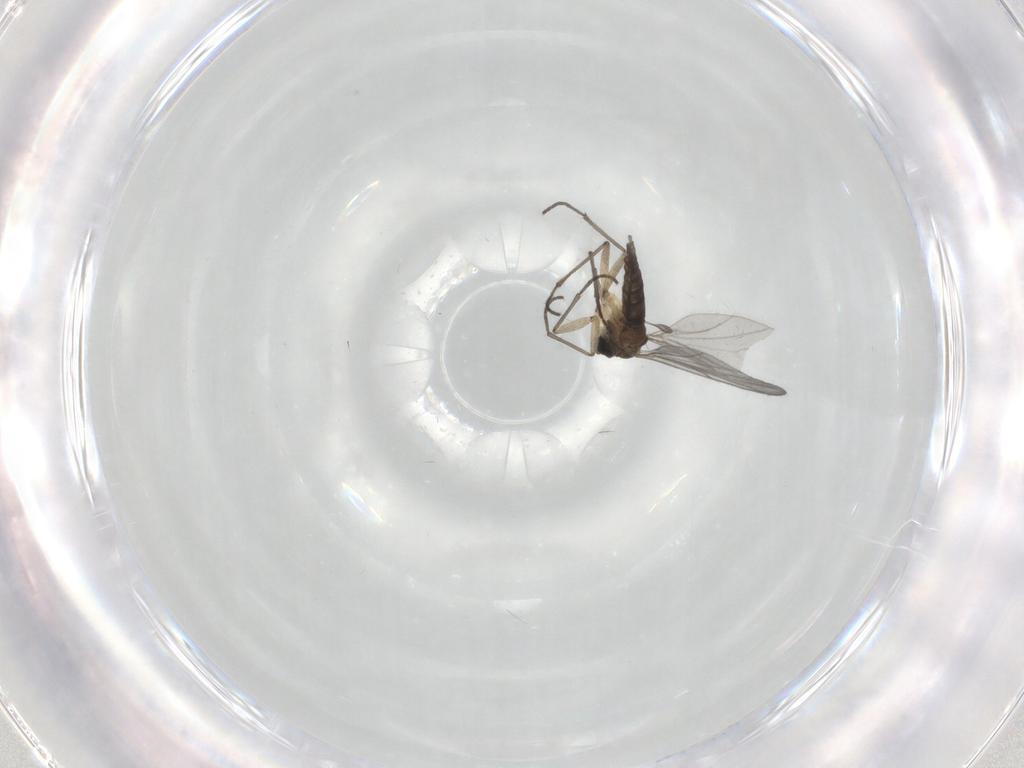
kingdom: Animalia
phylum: Arthropoda
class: Insecta
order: Diptera
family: Sciaridae
